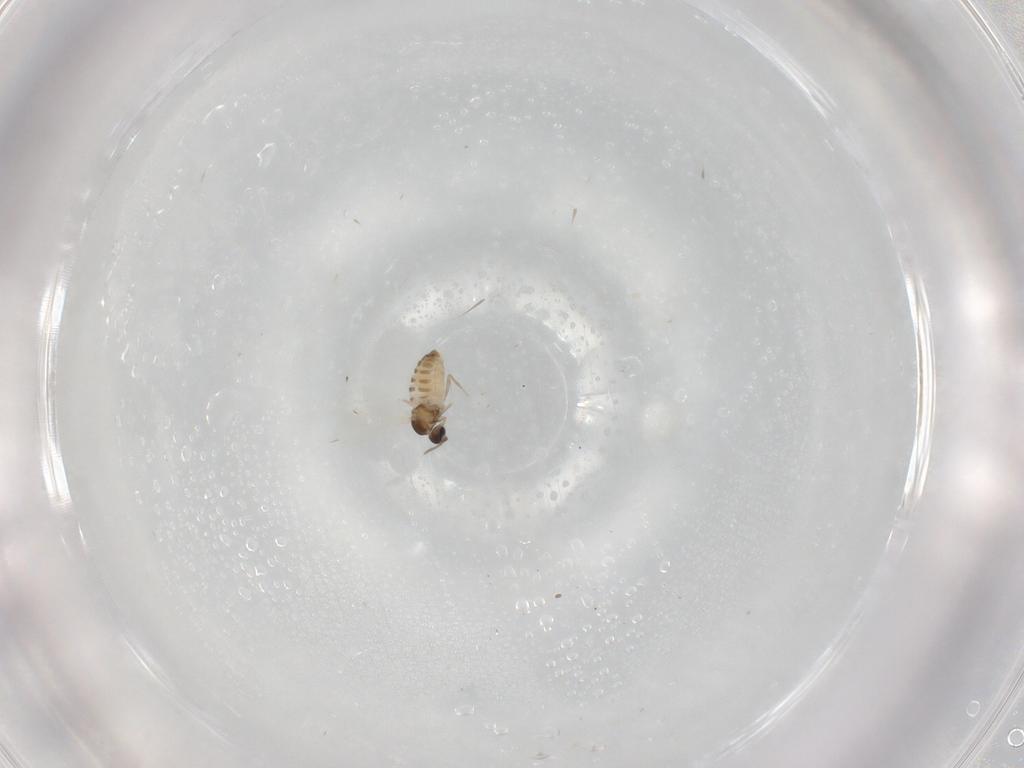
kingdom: Animalia
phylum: Arthropoda
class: Insecta
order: Diptera
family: Cecidomyiidae
